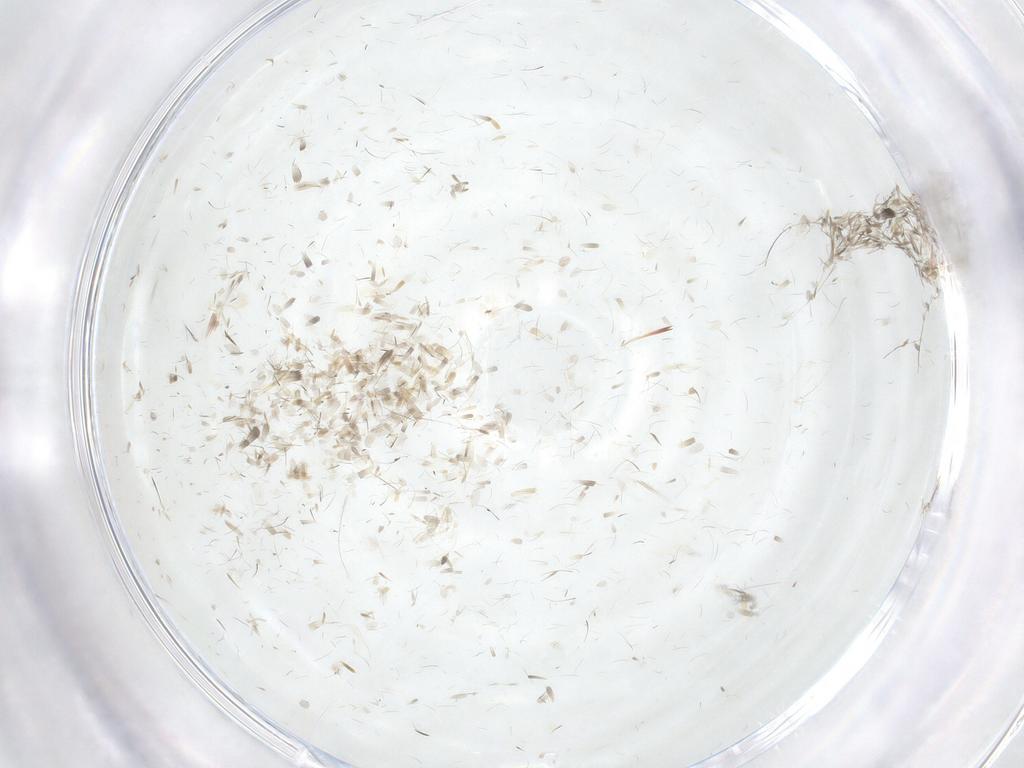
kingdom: Animalia
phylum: Arthropoda
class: Insecta
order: Diptera
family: Psychodidae
